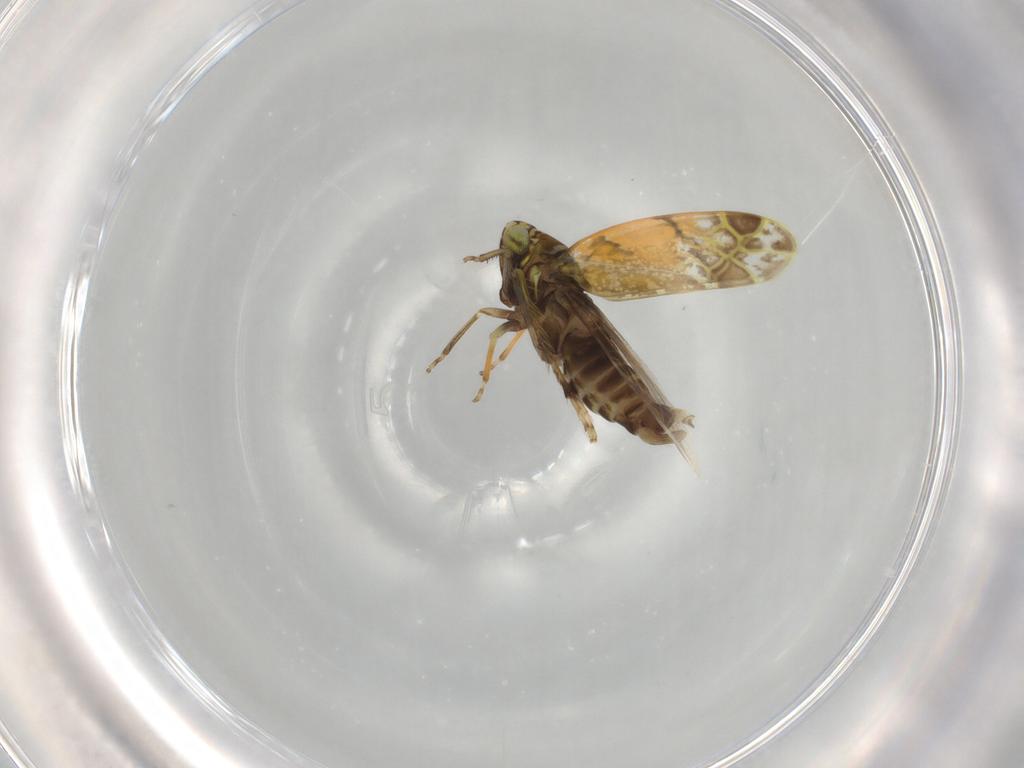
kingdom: Animalia
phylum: Arthropoda
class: Insecta
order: Hemiptera
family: Cicadellidae
